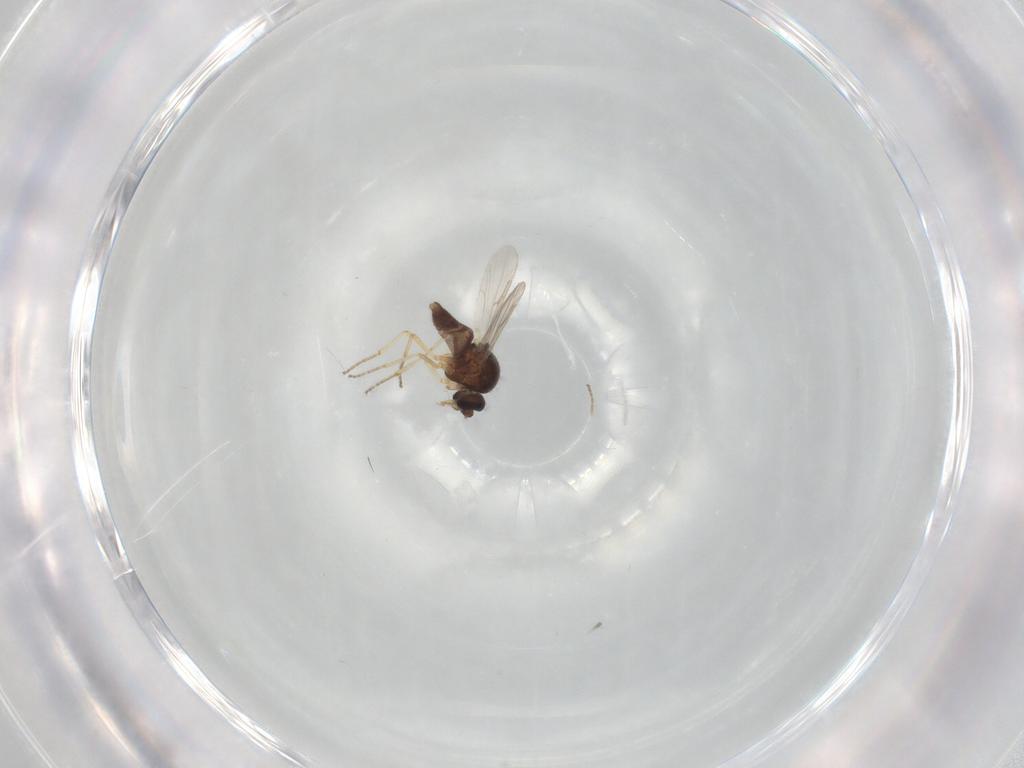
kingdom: Animalia
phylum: Arthropoda
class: Insecta
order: Diptera
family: Ceratopogonidae
